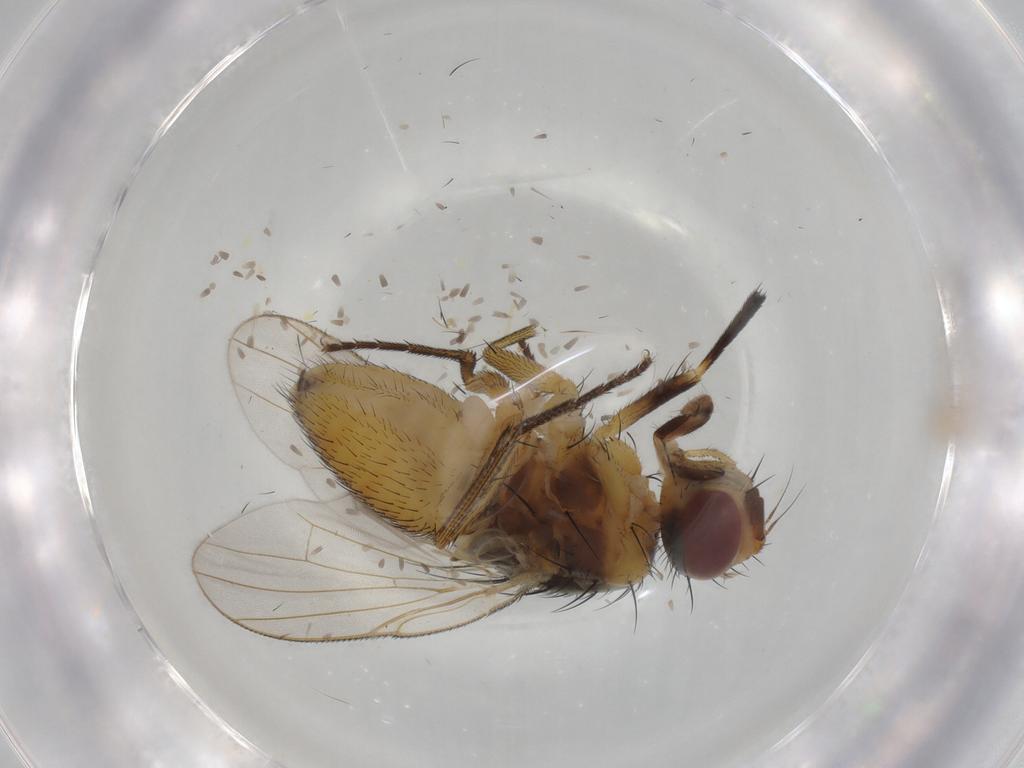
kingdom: Animalia
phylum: Arthropoda
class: Insecta
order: Diptera
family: Muscidae
